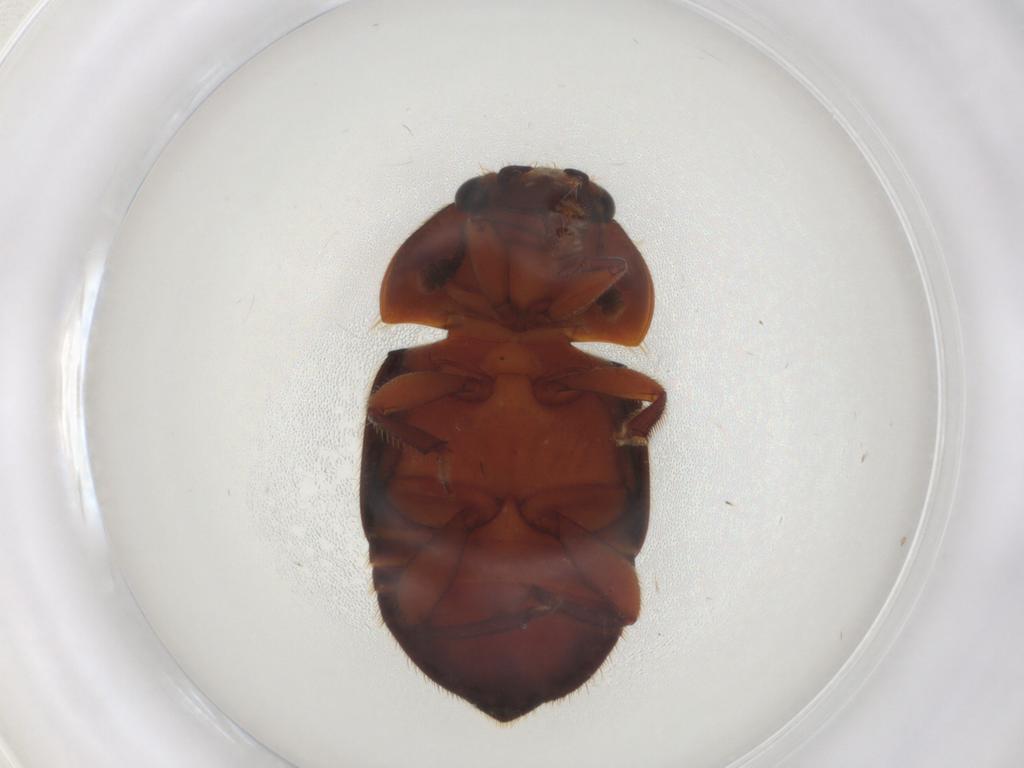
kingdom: Animalia
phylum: Arthropoda
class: Insecta
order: Coleoptera
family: Nitidulidae
